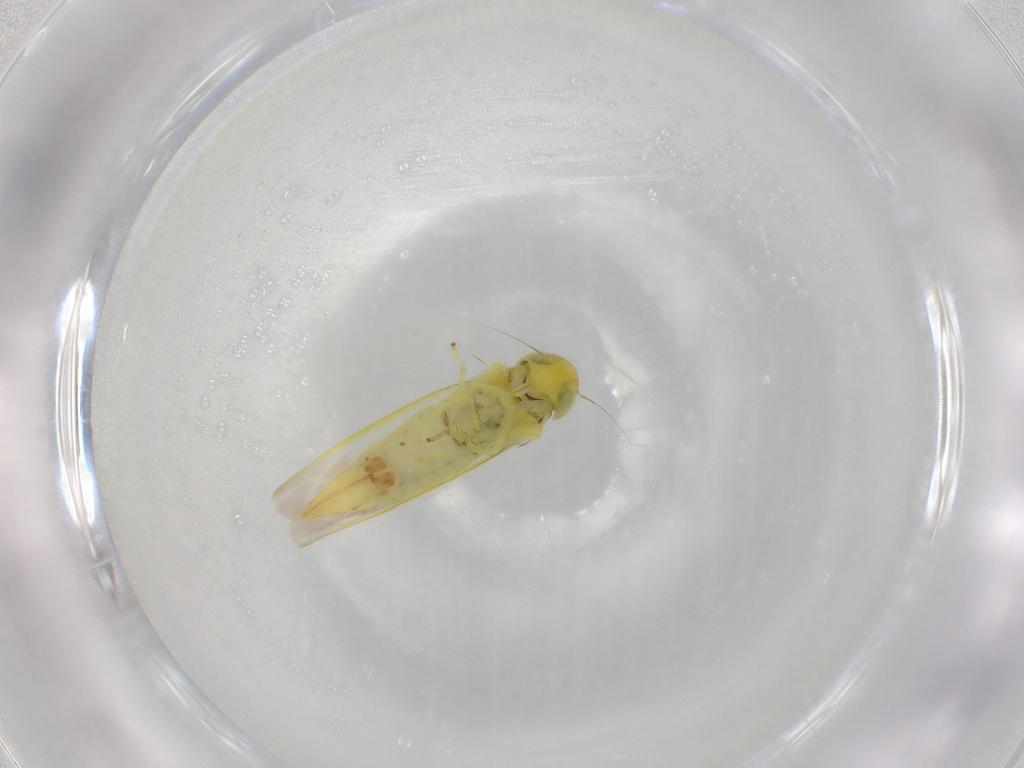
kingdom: Animalia
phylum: Arthropoda
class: Insecta
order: Hemiptera
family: Cicadellidae
